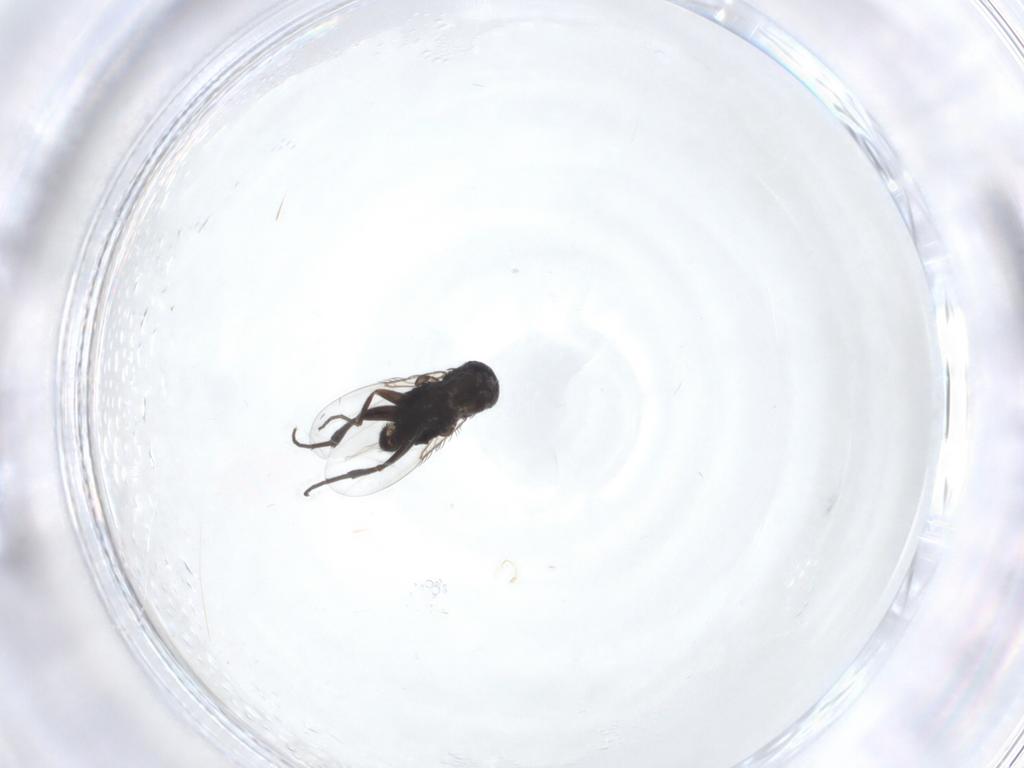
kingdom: Animalia
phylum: Arthropoda
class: Insecta
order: Diptera
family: Phoridae
